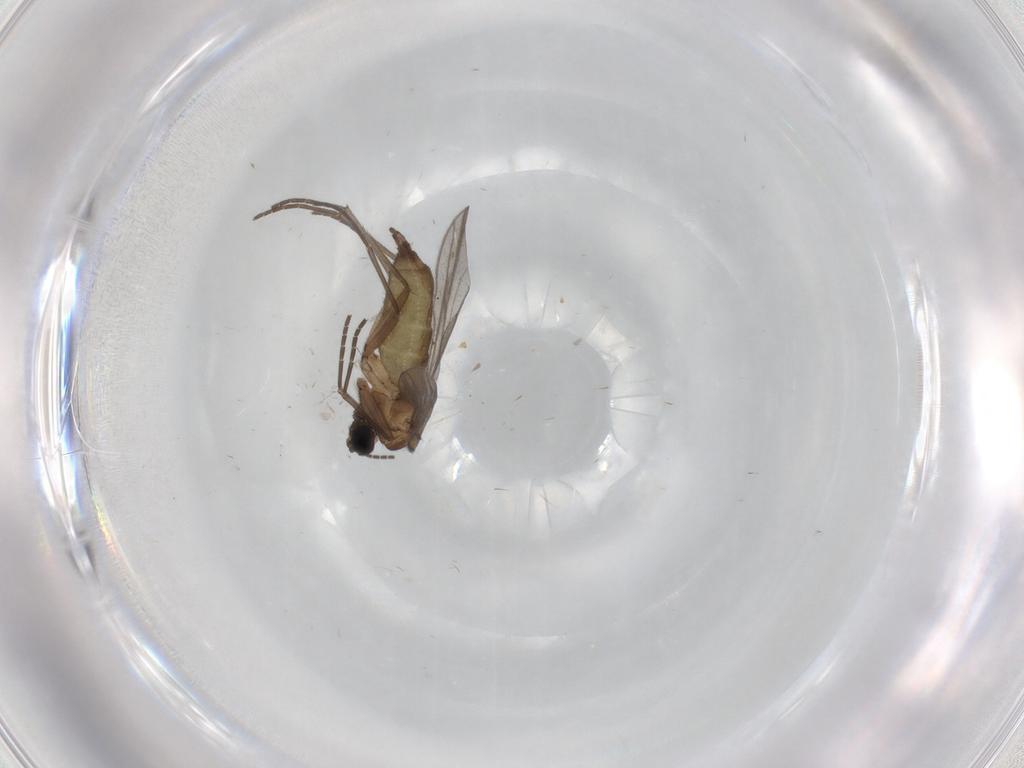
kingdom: Animalia
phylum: Arthropoda
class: Insecta
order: Diptera
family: Sciaridae
